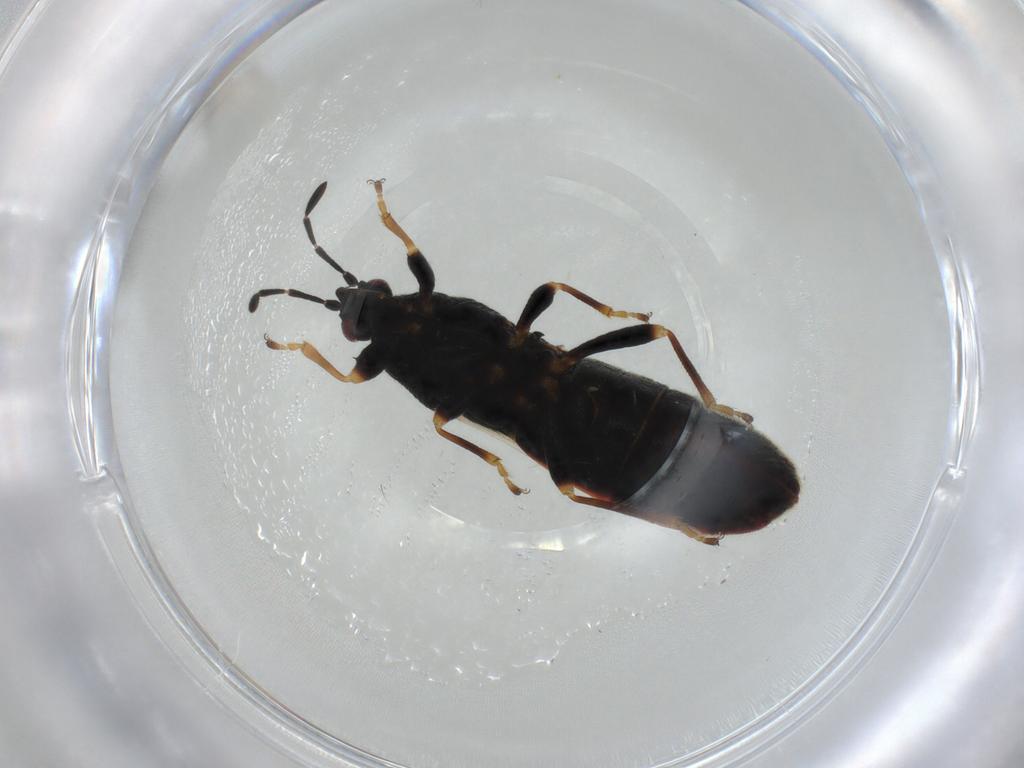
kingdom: Animalia
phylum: Arthropoda
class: Insecta
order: Hemiptera
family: Blissidae
